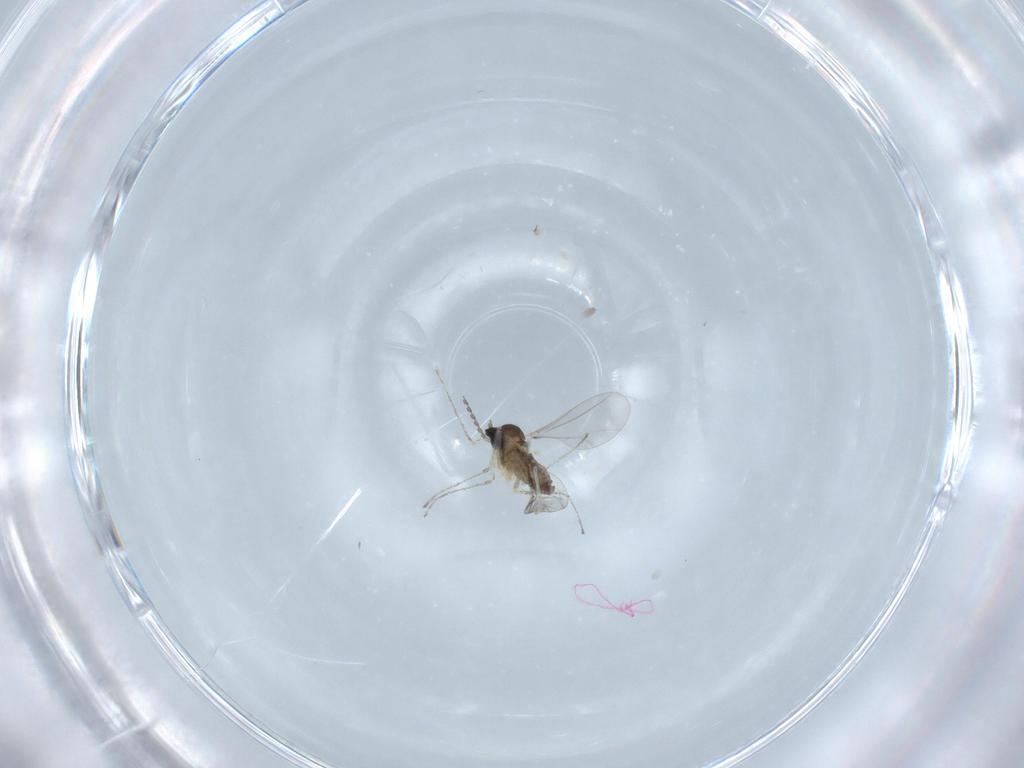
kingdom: Animalia
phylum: Arthropoda
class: Insecta
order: Diptera
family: Cecidomyiidae
